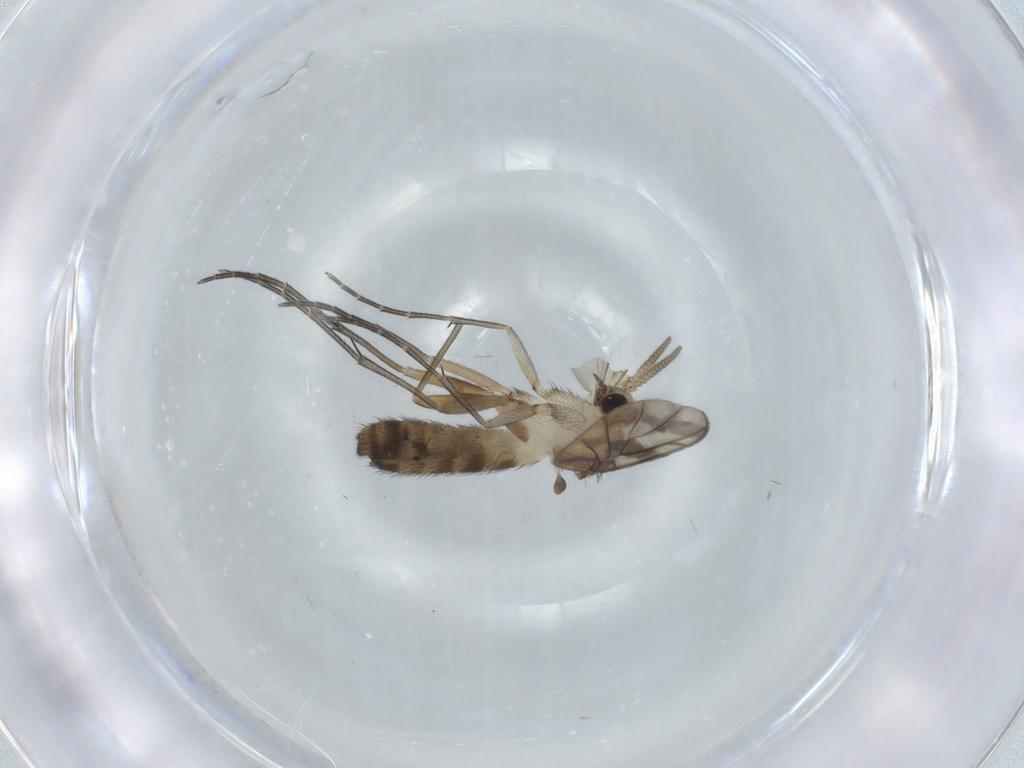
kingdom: Animalia
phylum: Arthropoda
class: Insecta
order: Diptera
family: Keroplatidae
